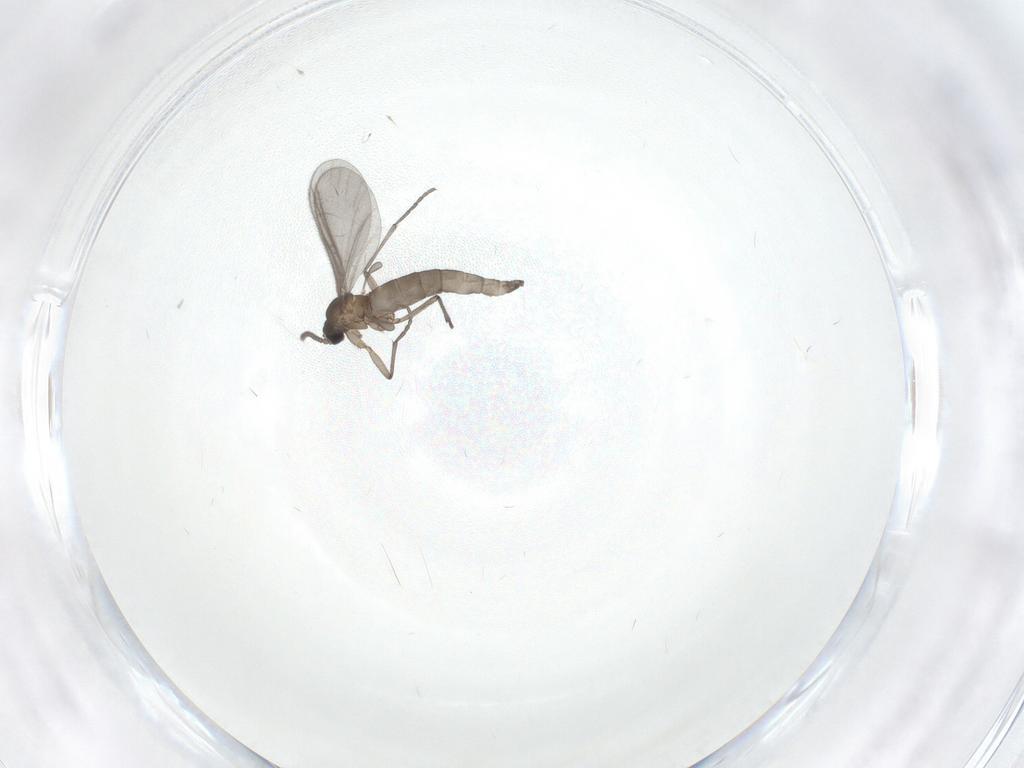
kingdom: Animalia
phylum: Arthropoda
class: Insecta
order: Diptera
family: Sciaridae
